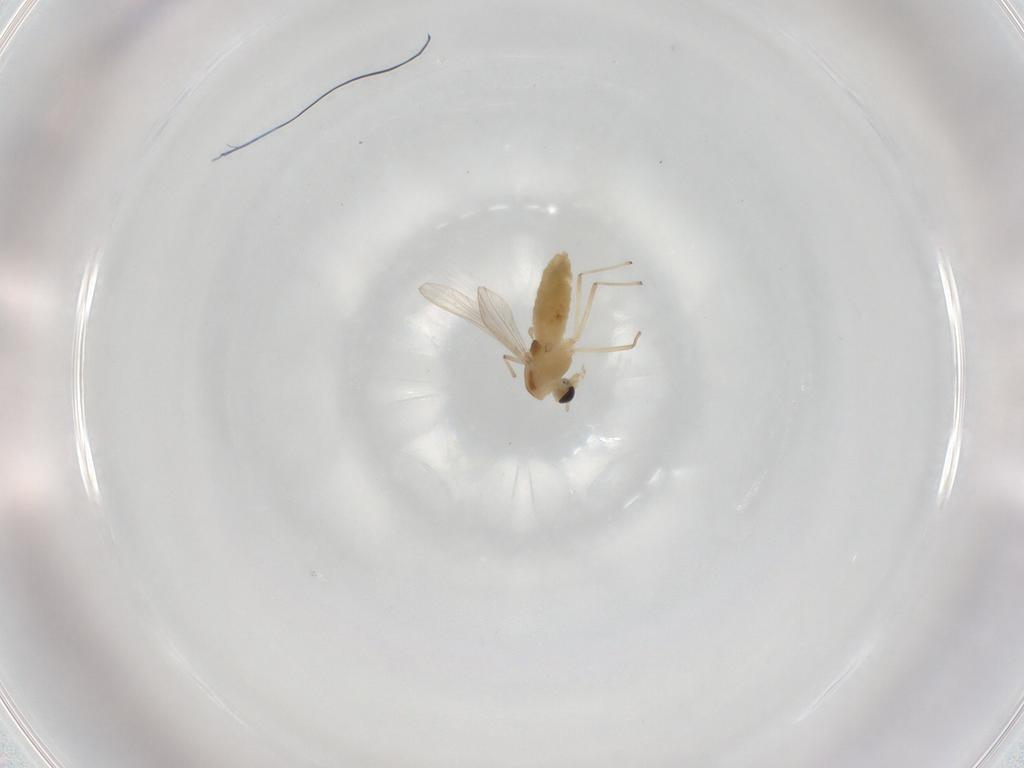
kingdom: Animalia
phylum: Arthropoda
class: Insecta
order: Diptera
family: Chironomidae
